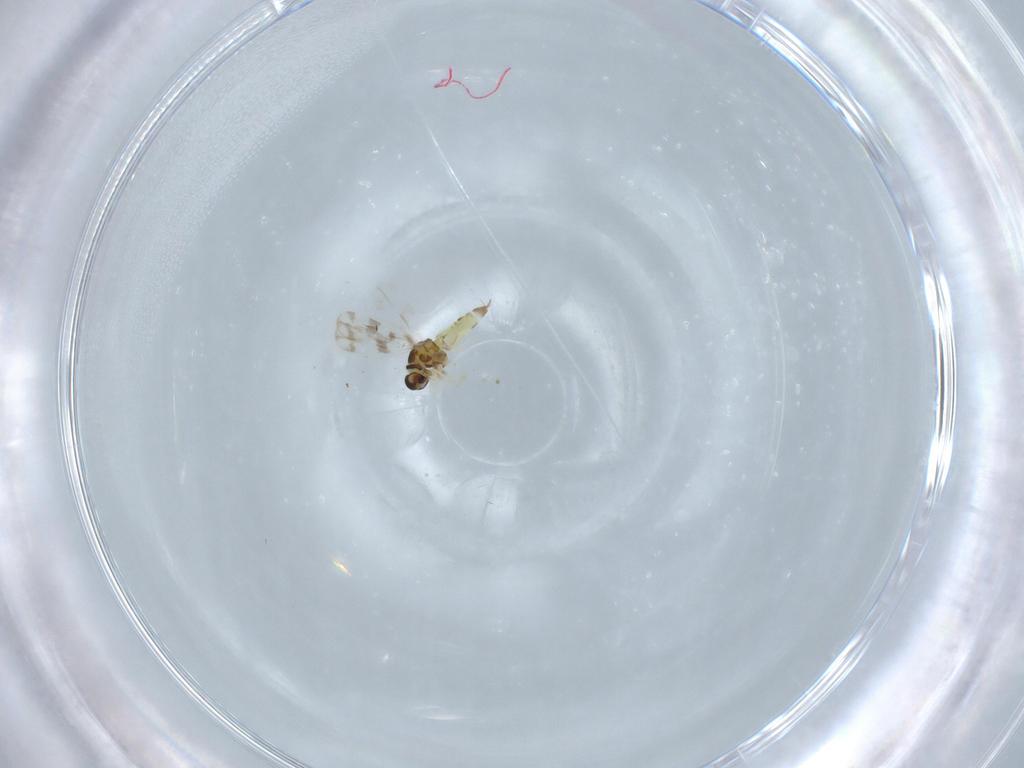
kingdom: Animalia
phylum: Arthropoda
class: Insecta
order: Hemiptera
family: Aleyrodidae
